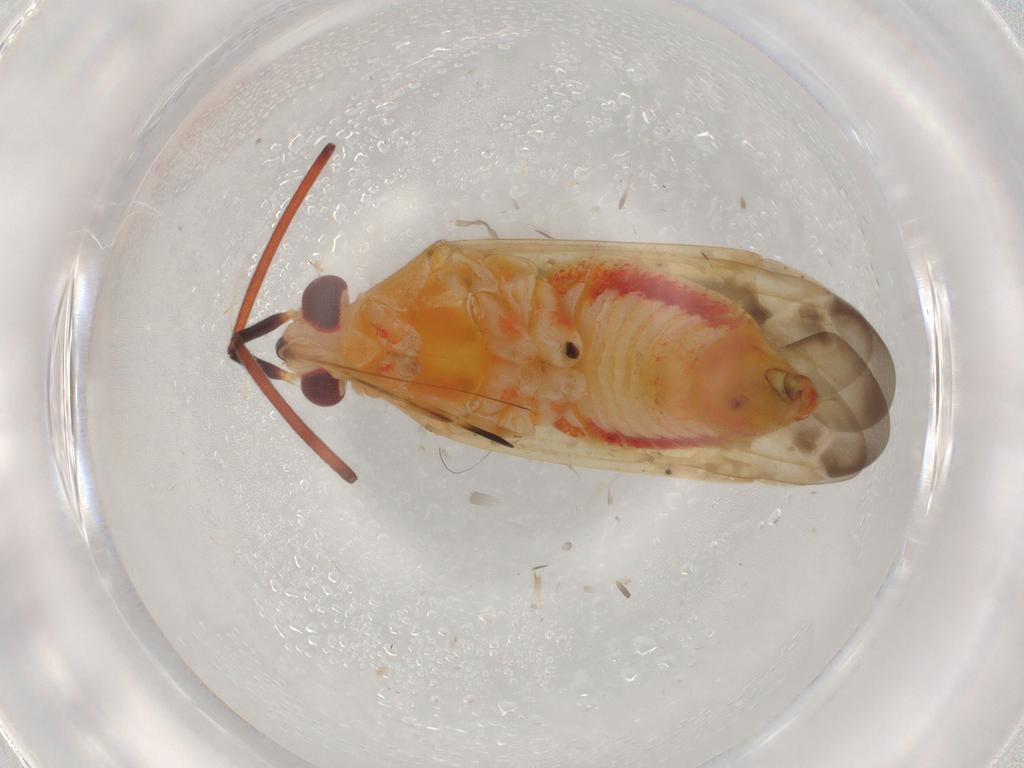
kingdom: Animalia
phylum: Arthropoda
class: Insecta
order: Hemiptera
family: Miridae
